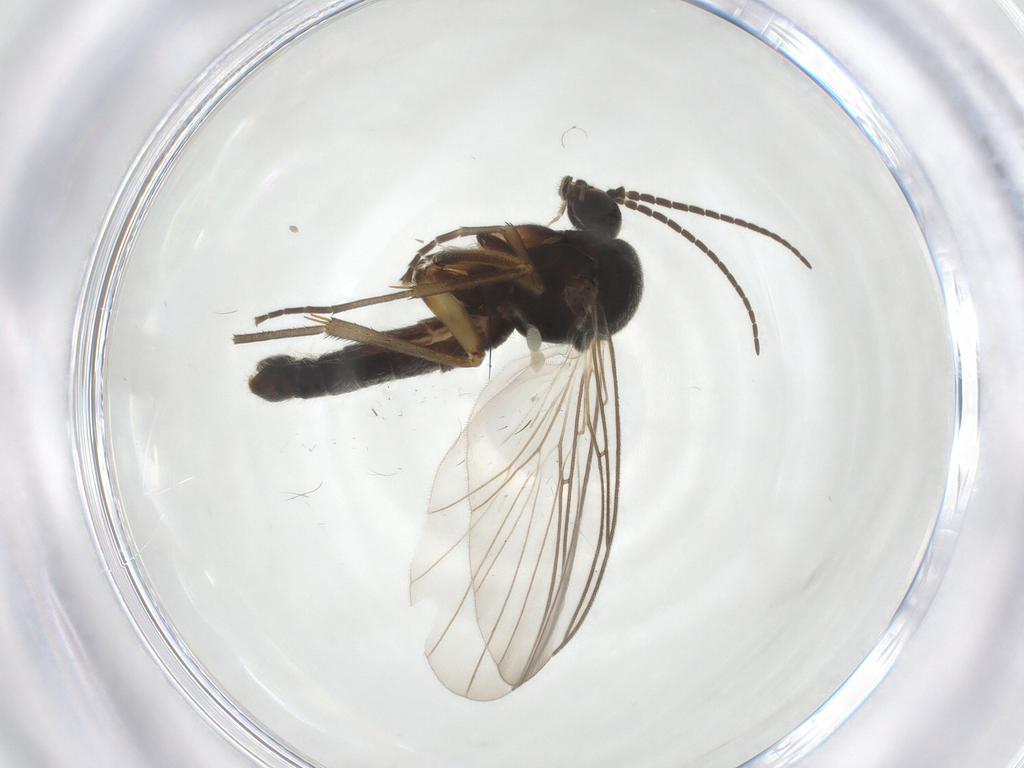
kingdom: Animalia
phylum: Arthropoda
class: Insecta
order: Diptera
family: Mycetophilidae
